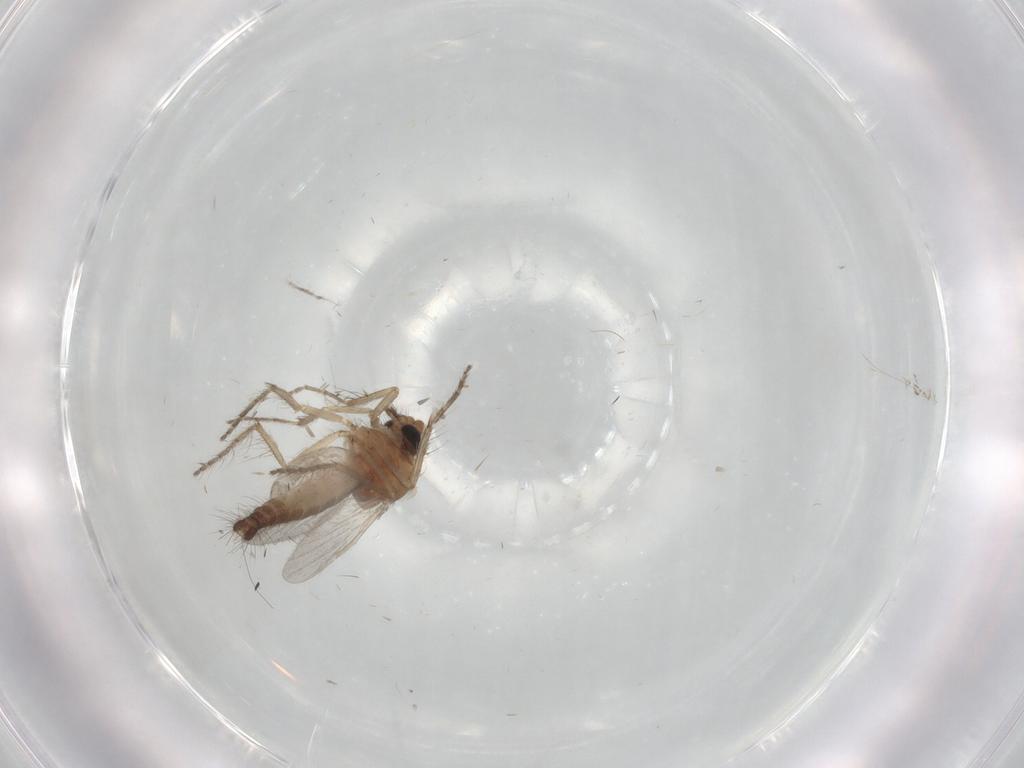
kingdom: Animalia
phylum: Arthropoda
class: Insecta
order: Diptera
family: Ceratopogonidae
